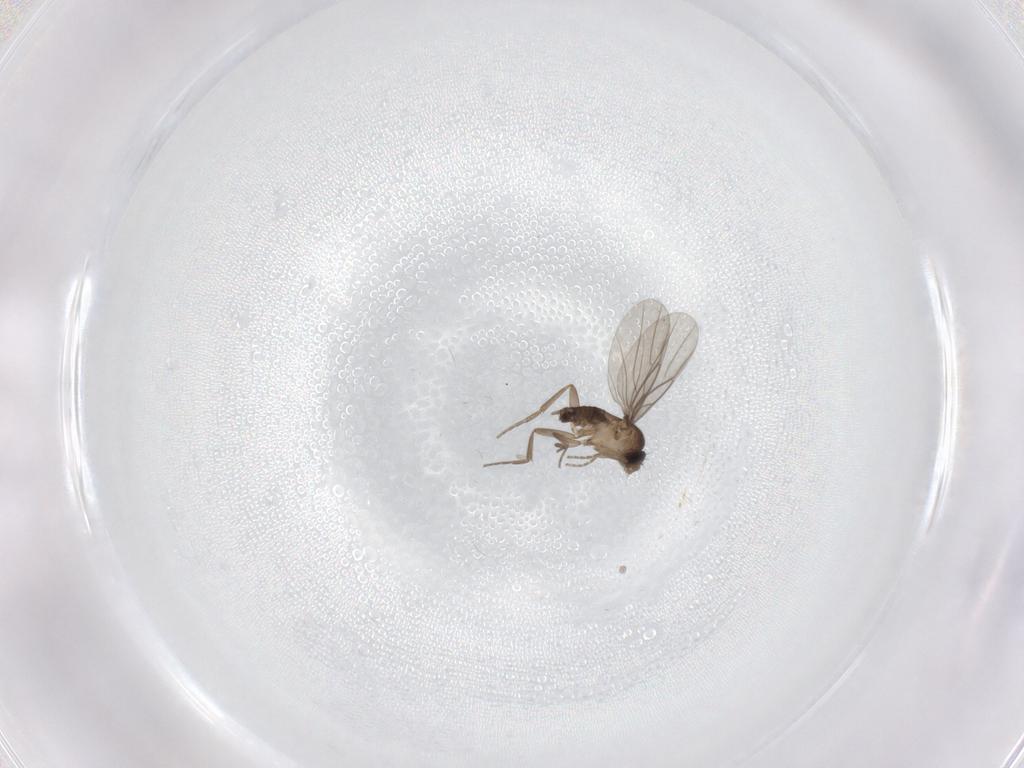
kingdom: Animalia
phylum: Arthropoda
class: Insecta
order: Diptera
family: Phoridae
